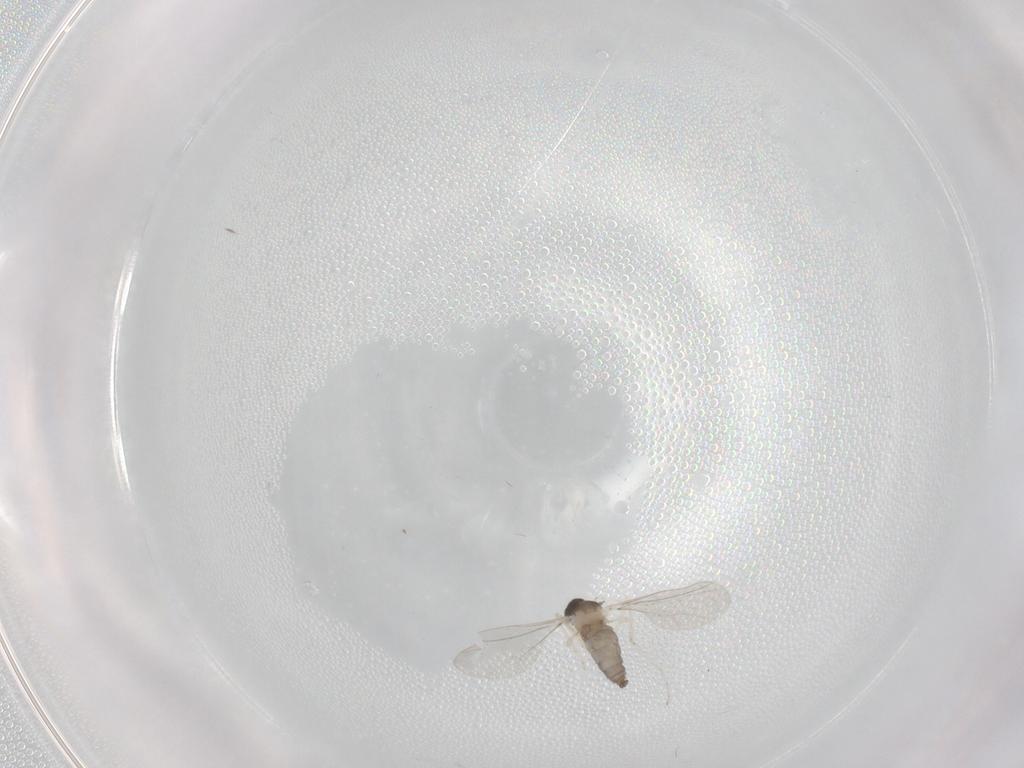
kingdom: Animalia
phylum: Arthropoda
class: Insecta
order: Diptera
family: Cecidomyiidae
